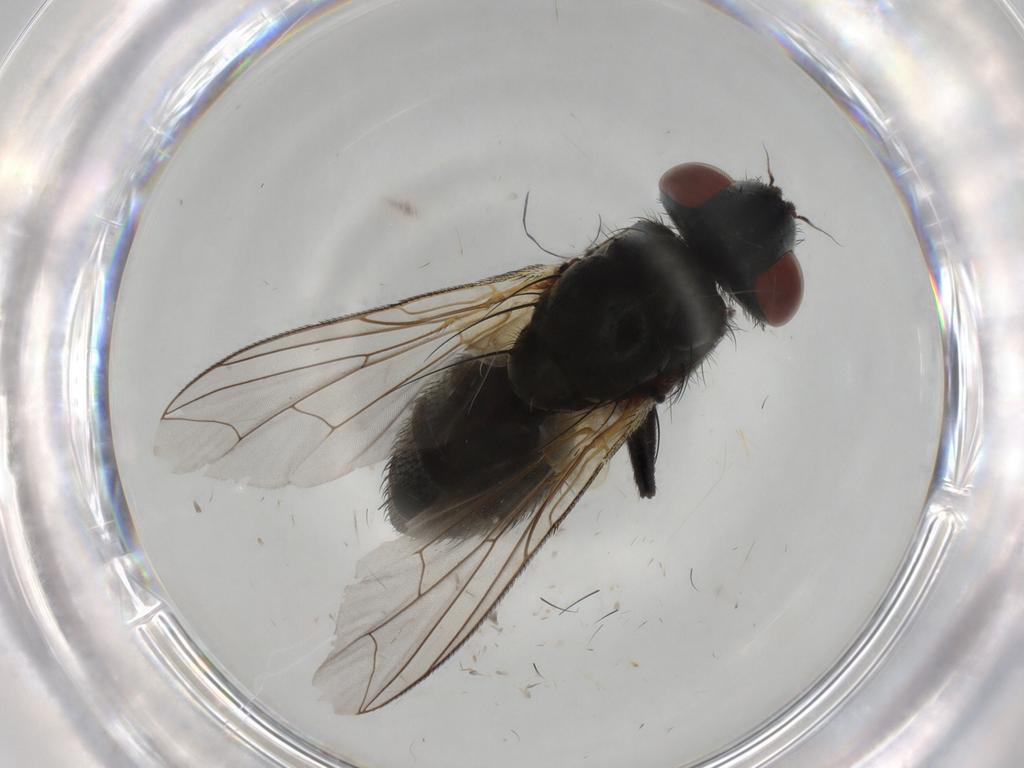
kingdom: Animalia
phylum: Arthropoda
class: Insecta
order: Diptera
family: Sarcophagidae
